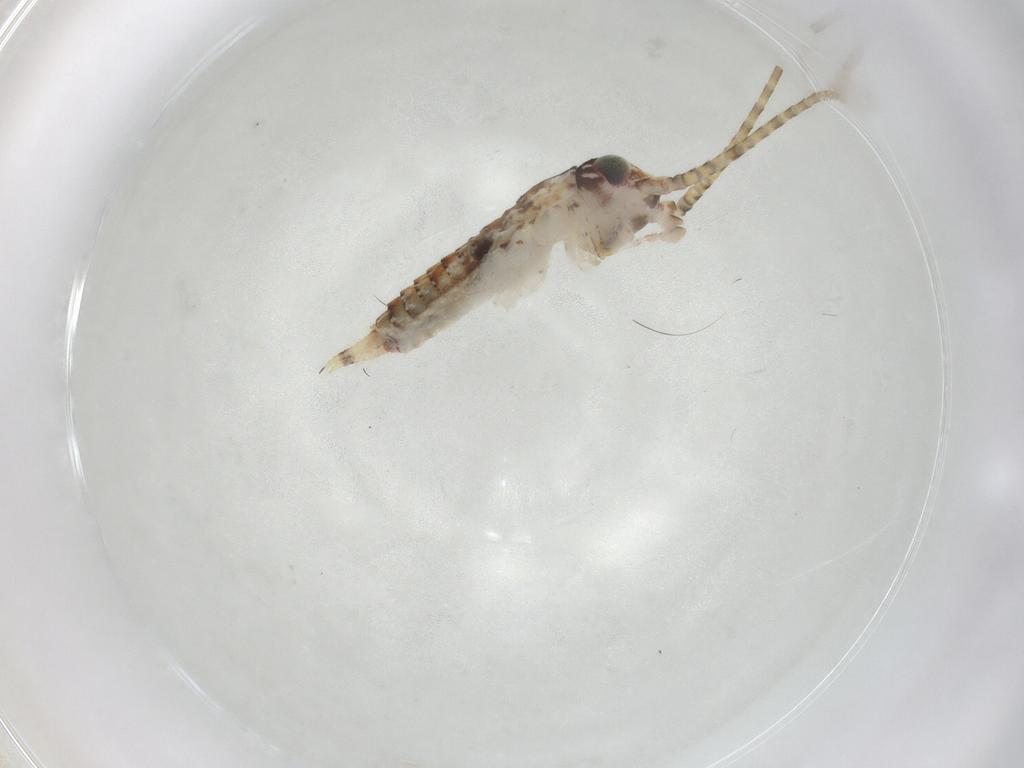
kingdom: Animalia
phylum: Arthropoda
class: Insecta
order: Orthoptera
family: Gryllidae
